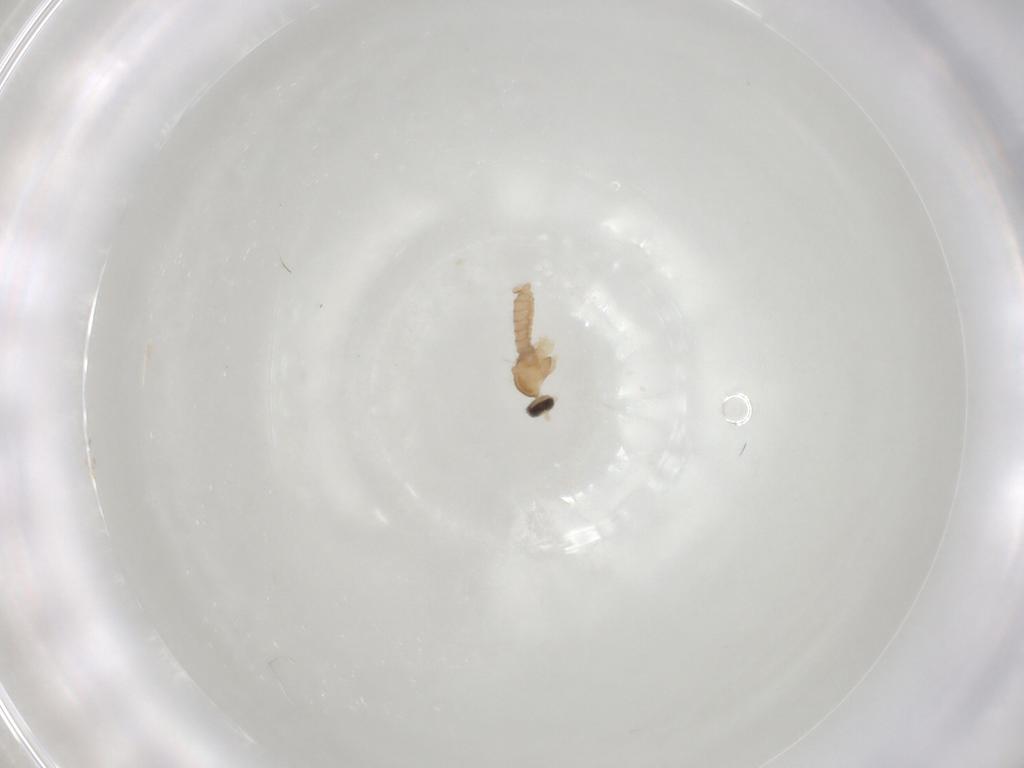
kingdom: Animalia
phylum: Arthropoda
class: Insecta
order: Diptera
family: Cecidomyiidae
